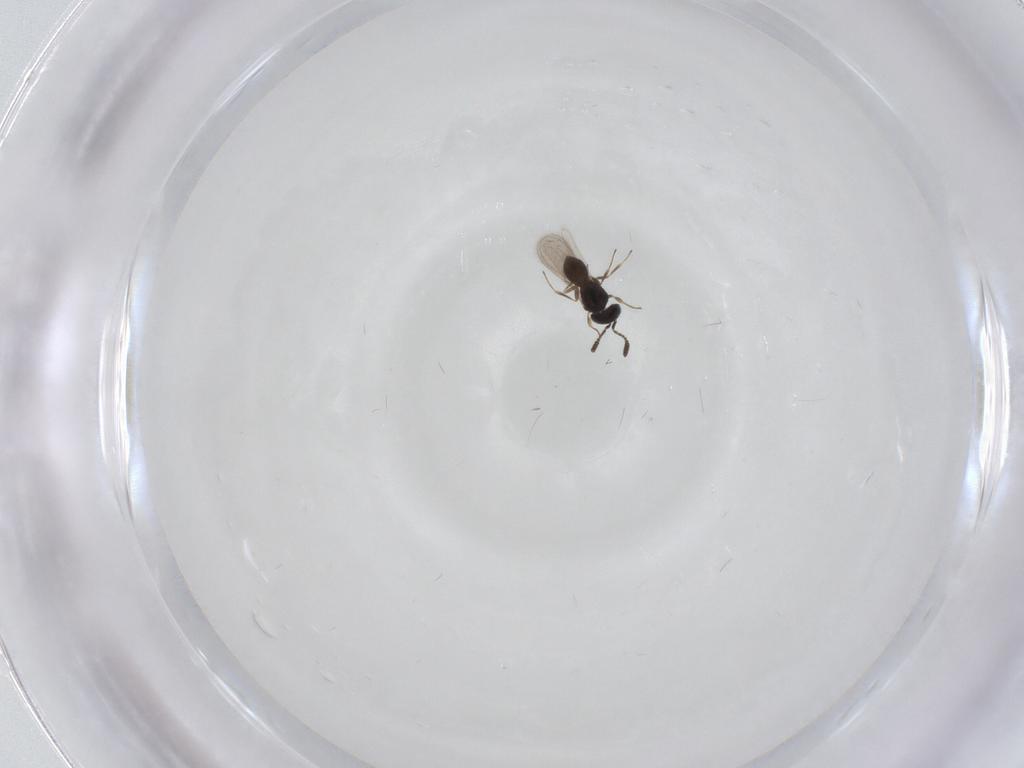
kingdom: Animalia
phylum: Arthropoda
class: Insecta
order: Hymenoptera
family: Scelionidae
